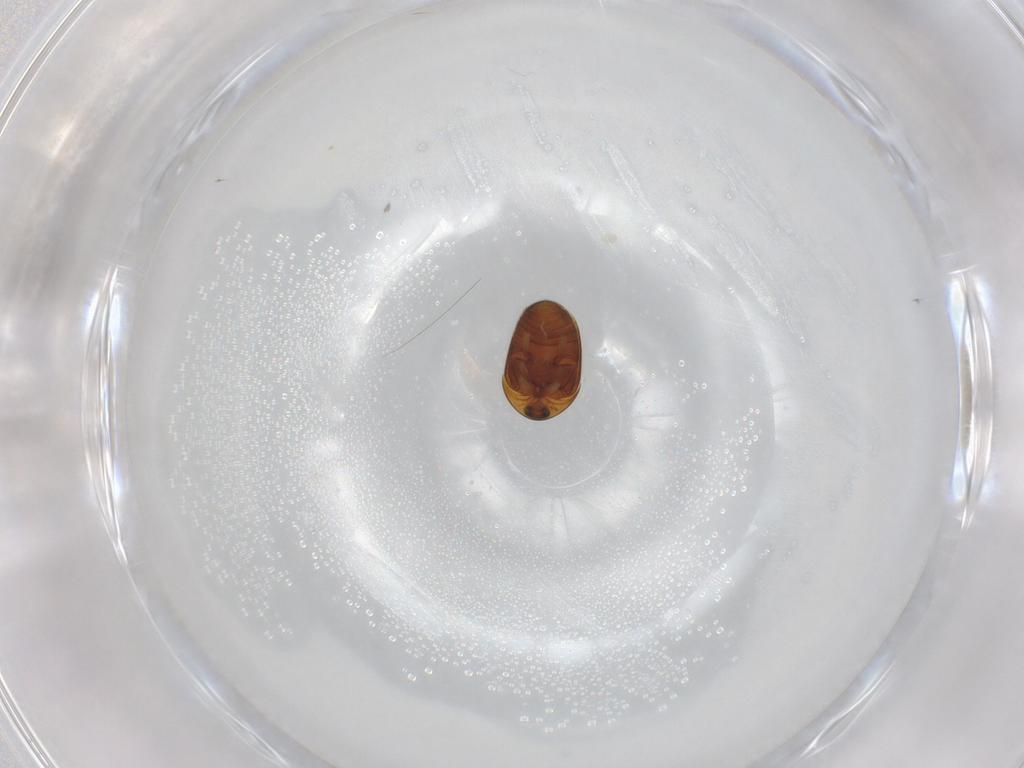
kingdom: Animalia
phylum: Arthropoda
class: Insecta
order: Coleoptera
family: Corylophidae
